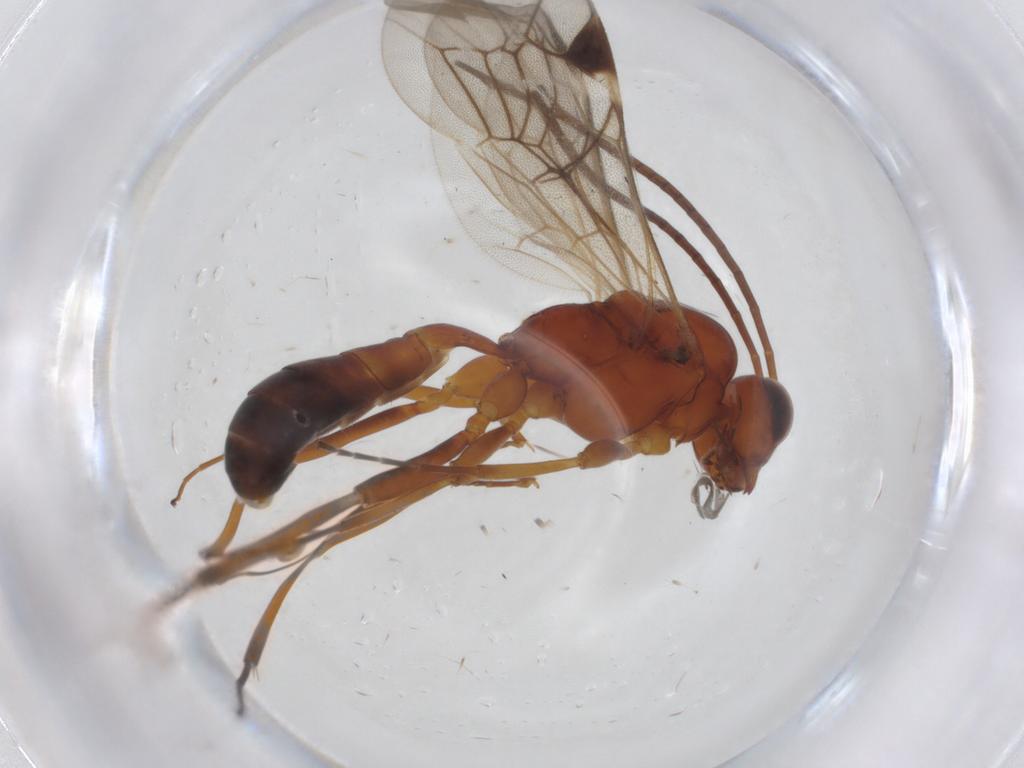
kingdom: Animalia
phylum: Arthropoda
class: Insecta
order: Hymenoptera
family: Ichneumonidae
